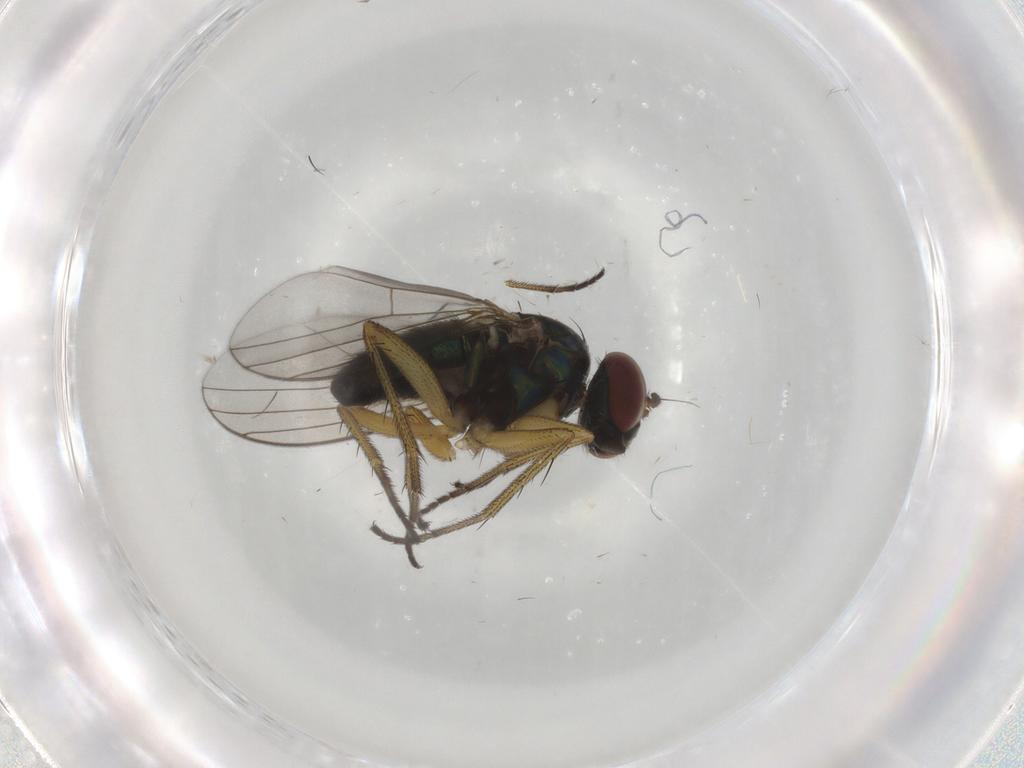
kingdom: Animalia
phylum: Arthropoda
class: Insecta
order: Diptera
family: Dolichopodidae
